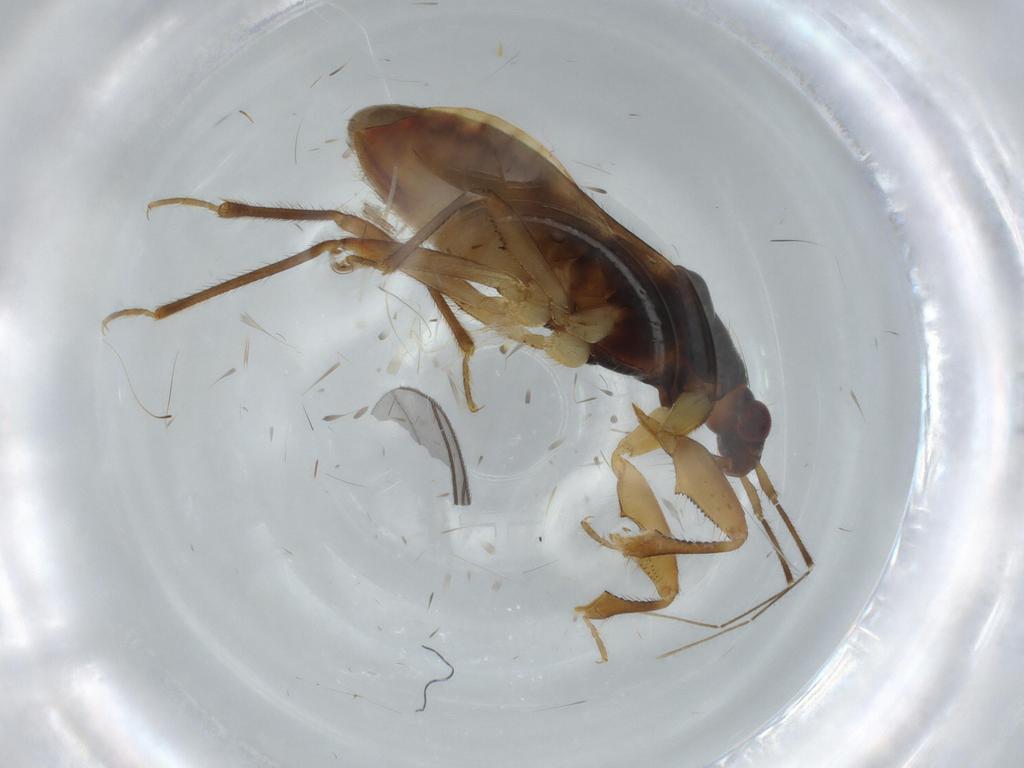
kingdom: Animalia
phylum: Arthropoda
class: Insecta
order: Hemiptera
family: Nabidae
